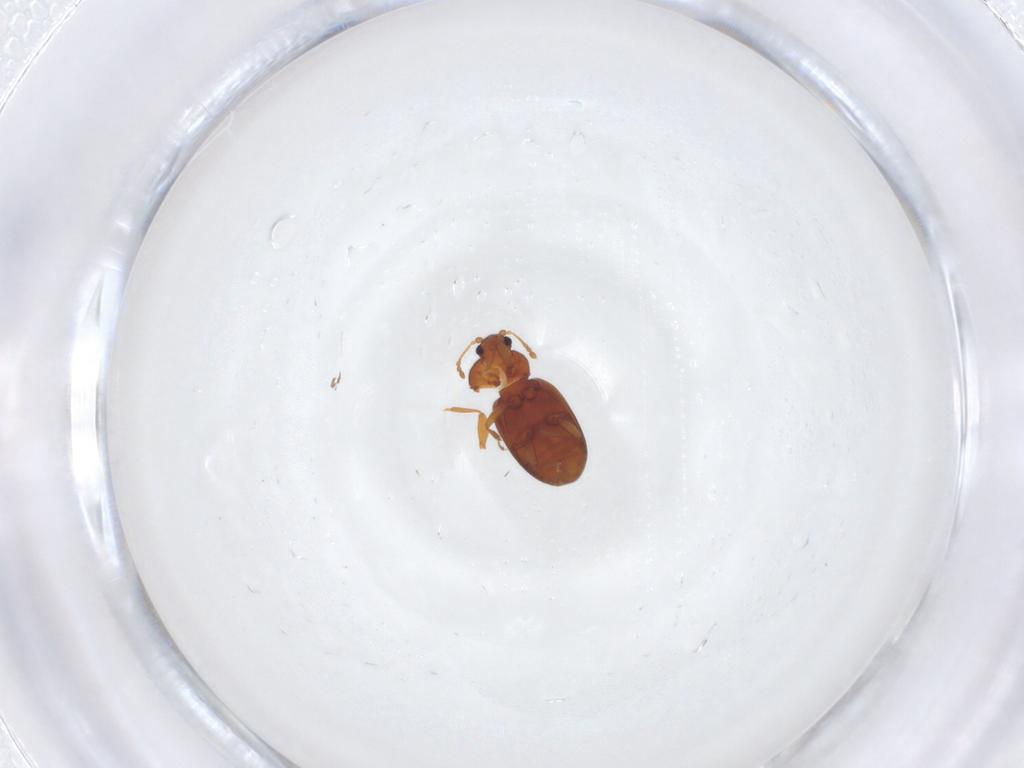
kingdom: Animalia
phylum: Arthropoda
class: Insecta
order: Coleoptera
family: Latridiidae
